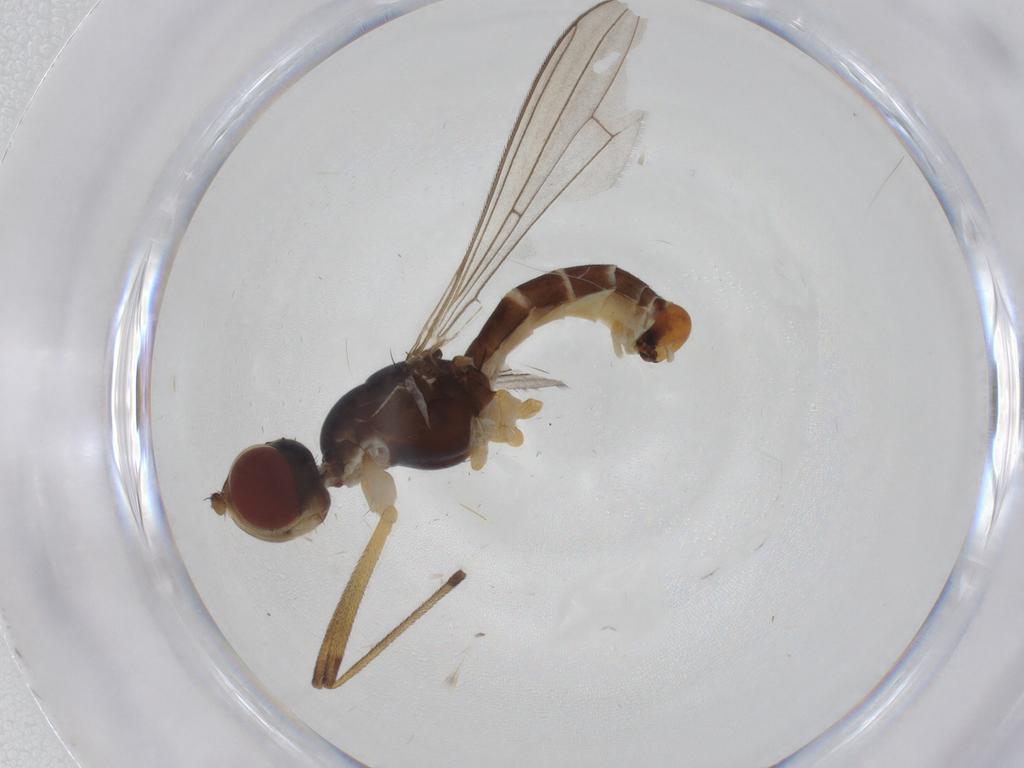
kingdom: Animalia
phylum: Arthropoda
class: Insecta
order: Diptera
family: Micropezidae
